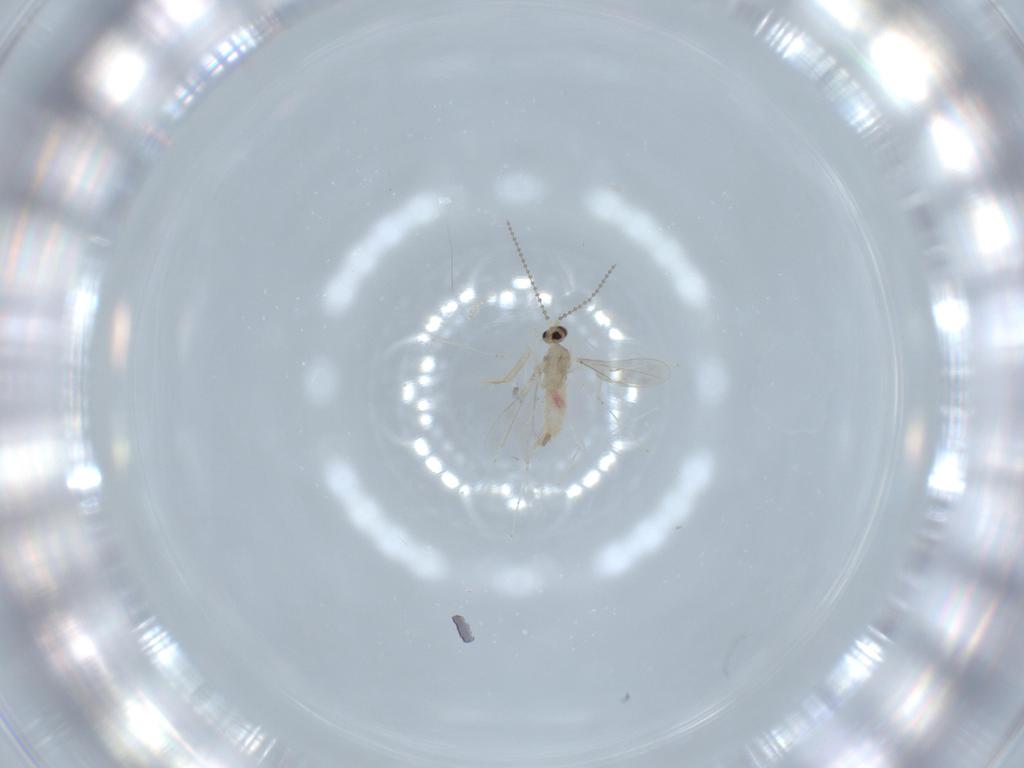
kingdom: Animalia
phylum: Arthropoda
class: Insecta
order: Diptera
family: Cecidomyiidae
